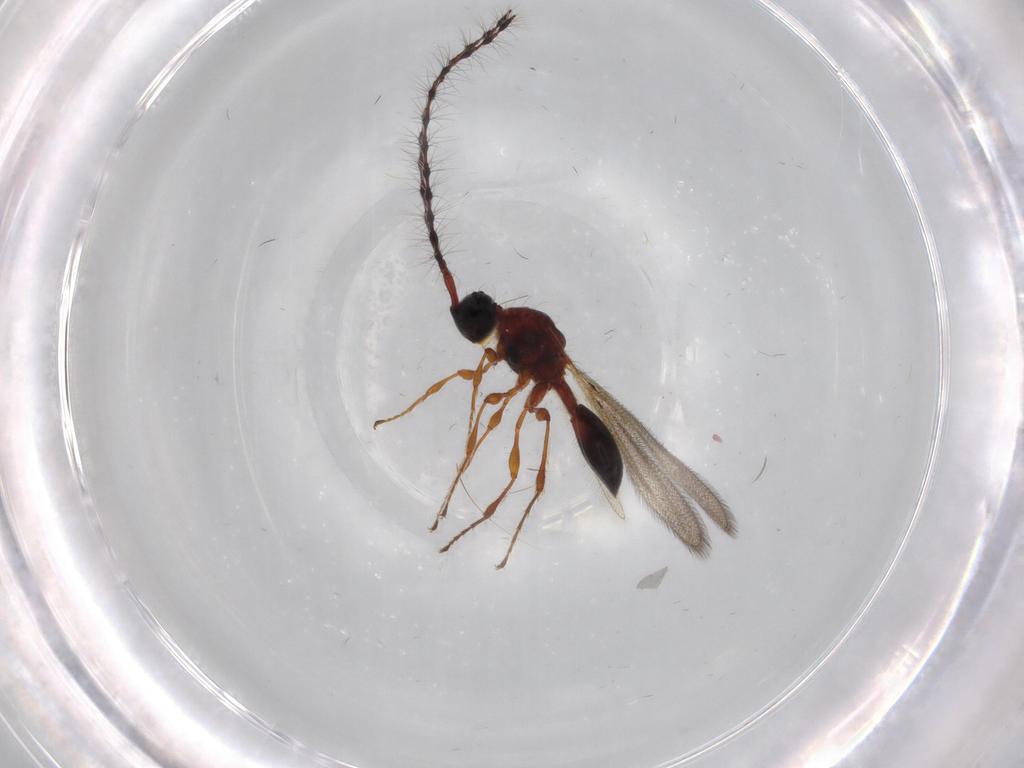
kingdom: Animalia
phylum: Arthropoda
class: Insecta
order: Hymenoptera
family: Diapriidae
